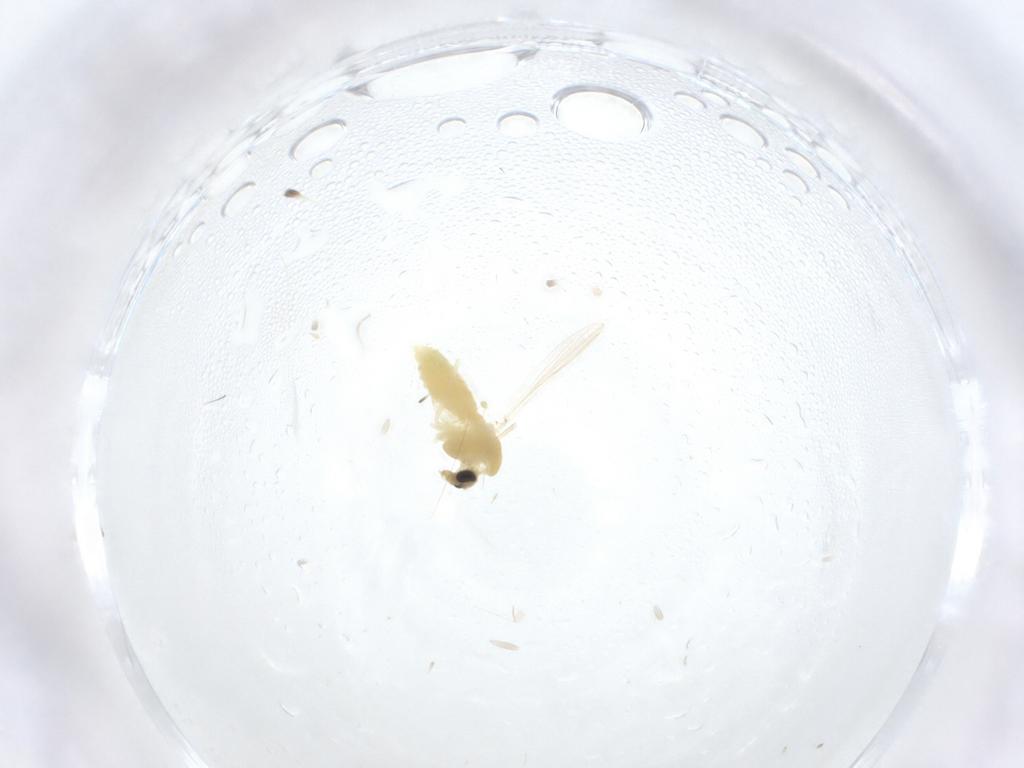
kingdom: Animalia
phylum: Arthropoda
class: Insecta
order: Diptera
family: Chironomidae
